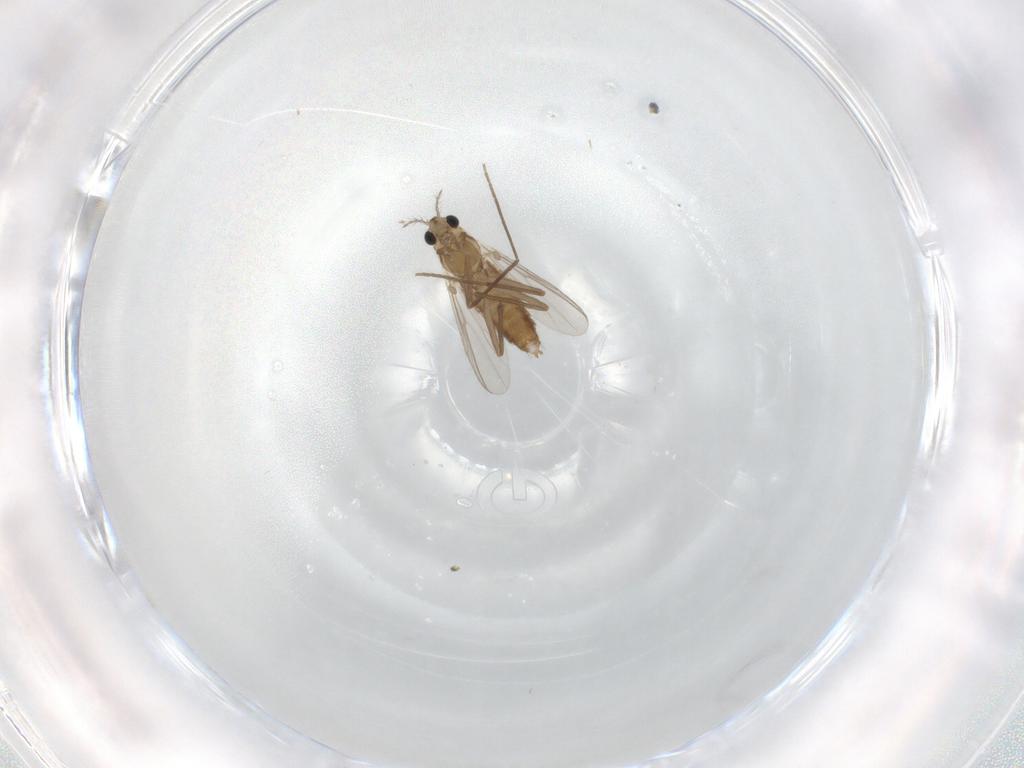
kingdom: Animalia
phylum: Arthropoda
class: Insecta
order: Diptera
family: Chironomidae
